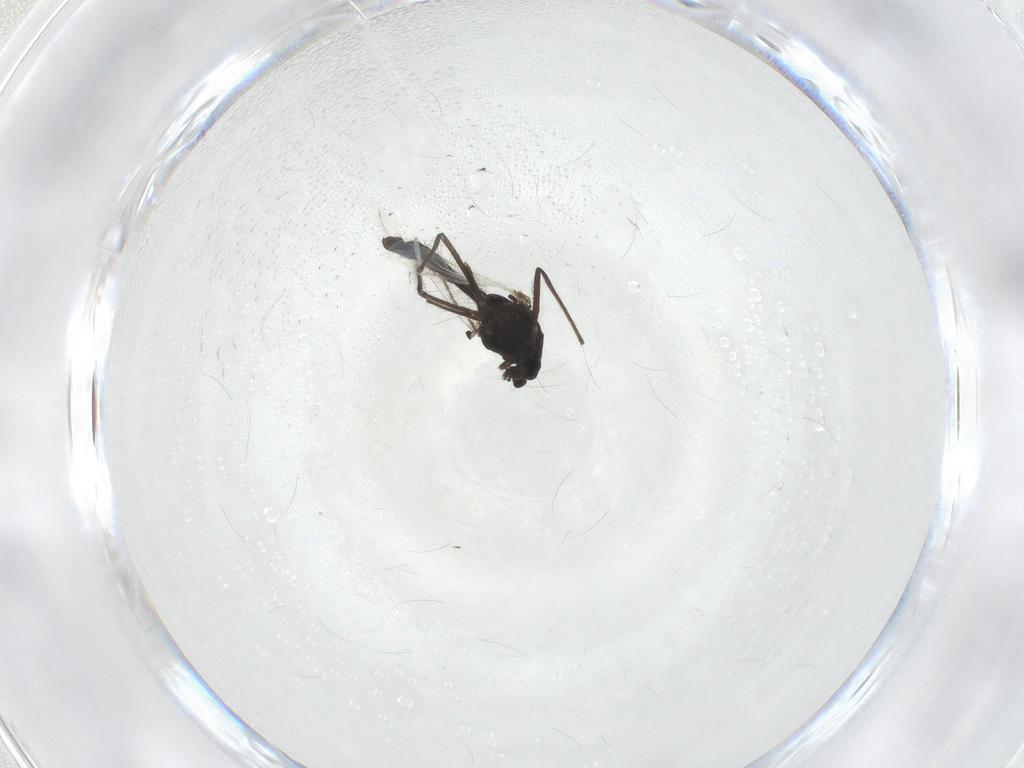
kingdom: Animalia
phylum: Arthropoda
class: Insecta
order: Diptera
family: Chironomidae
